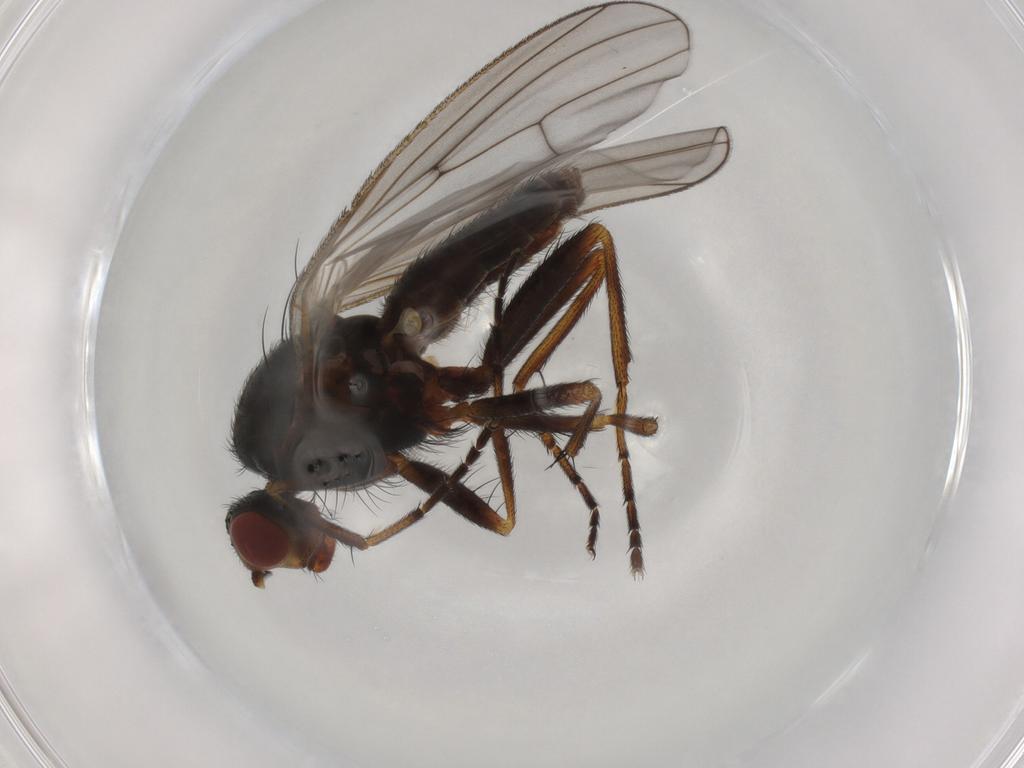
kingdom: Animalia
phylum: Arthropoda
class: Insecta
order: Diptera
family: Heleomyzidae
